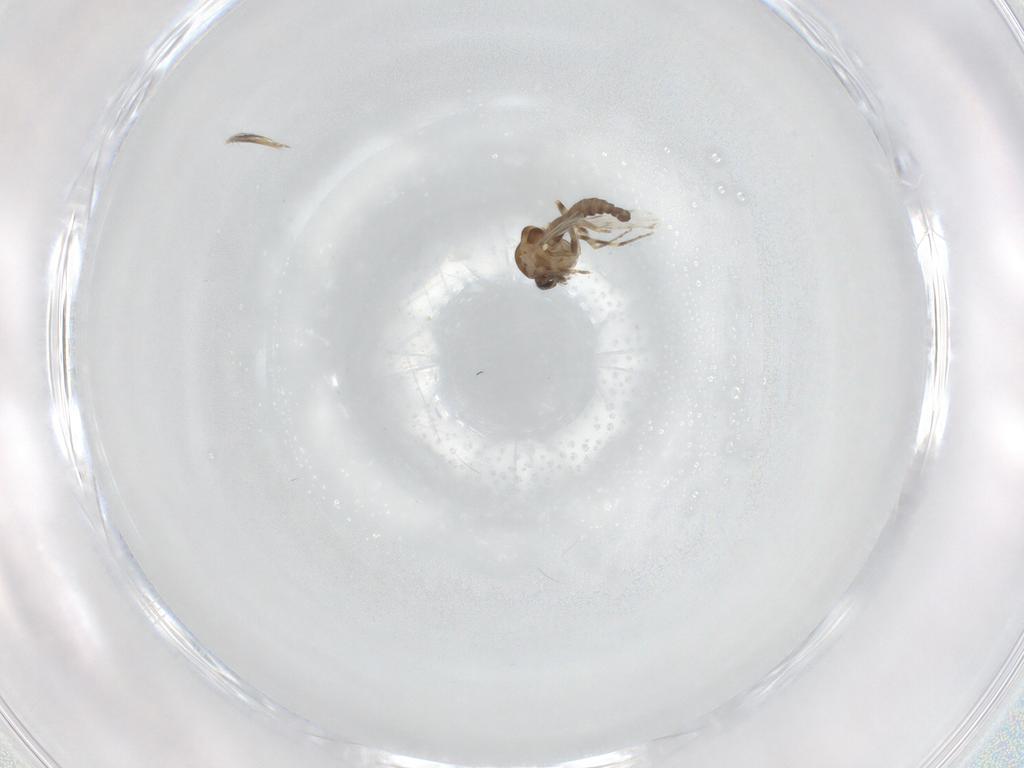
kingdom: Animalia
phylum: Arthropoda
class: Insecta
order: Diptera
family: Ceratopogonidae
